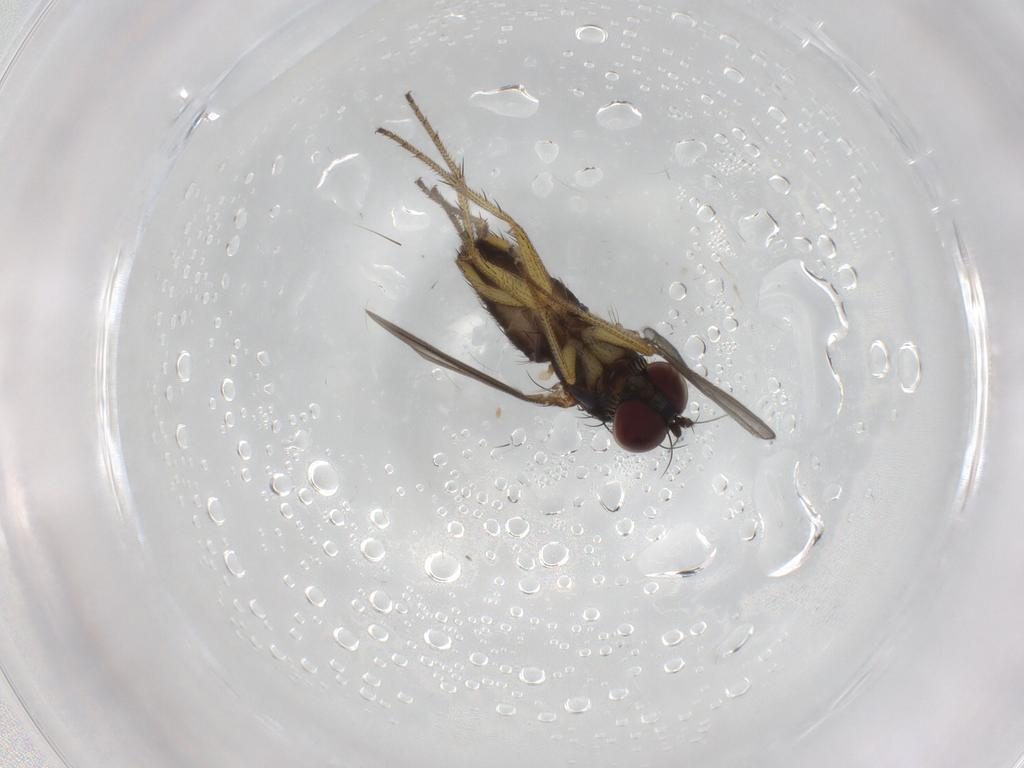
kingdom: Animalia
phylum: Arthropoda
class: Insecta
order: Diptera
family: Dolichopodidae
